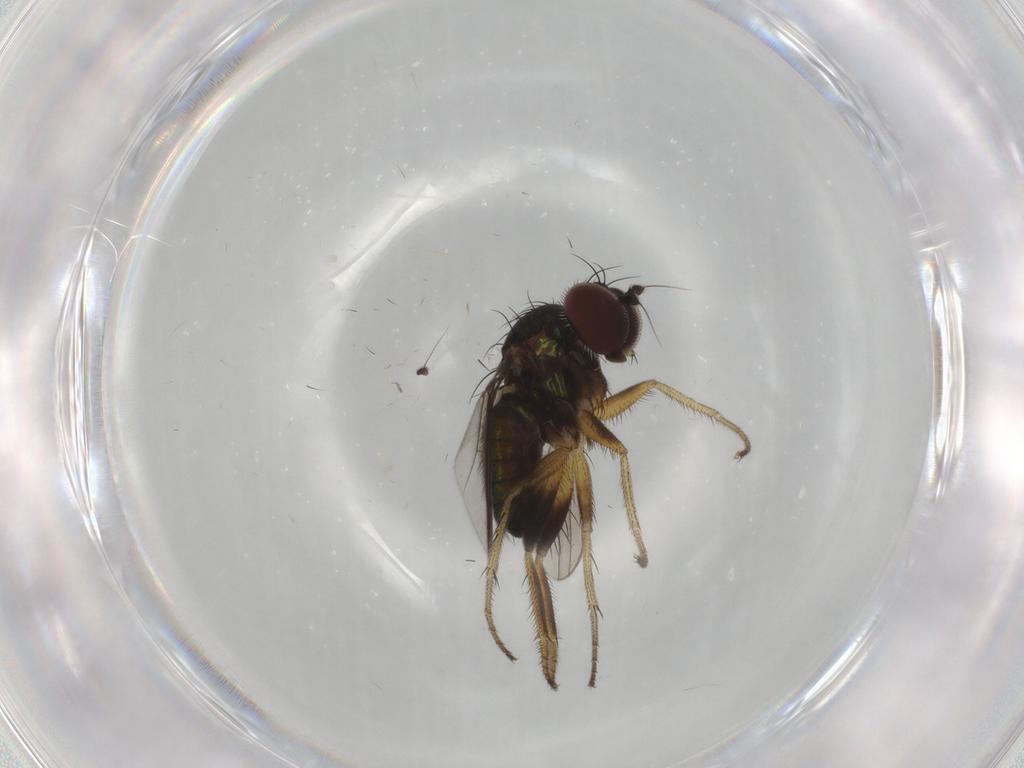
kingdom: Animalia
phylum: Arthropoda
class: Insecta
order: Diptera
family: Dolichopodidae
